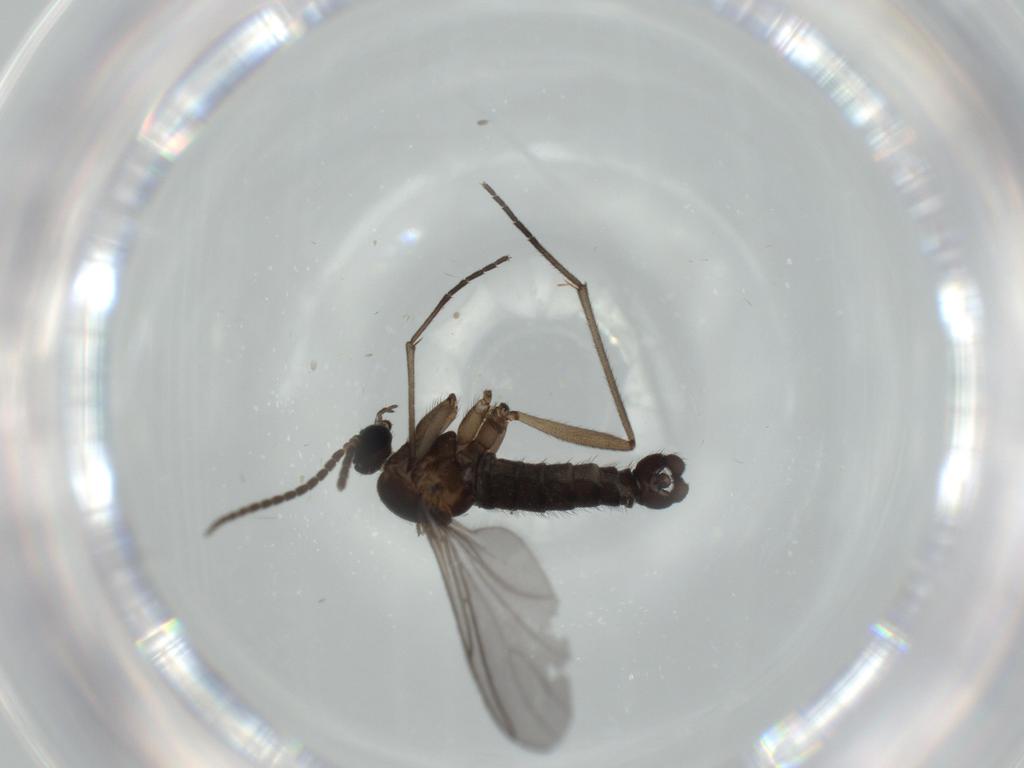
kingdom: Animalia
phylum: Arthropoda
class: Insecta
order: Diptera
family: Sciaridae
